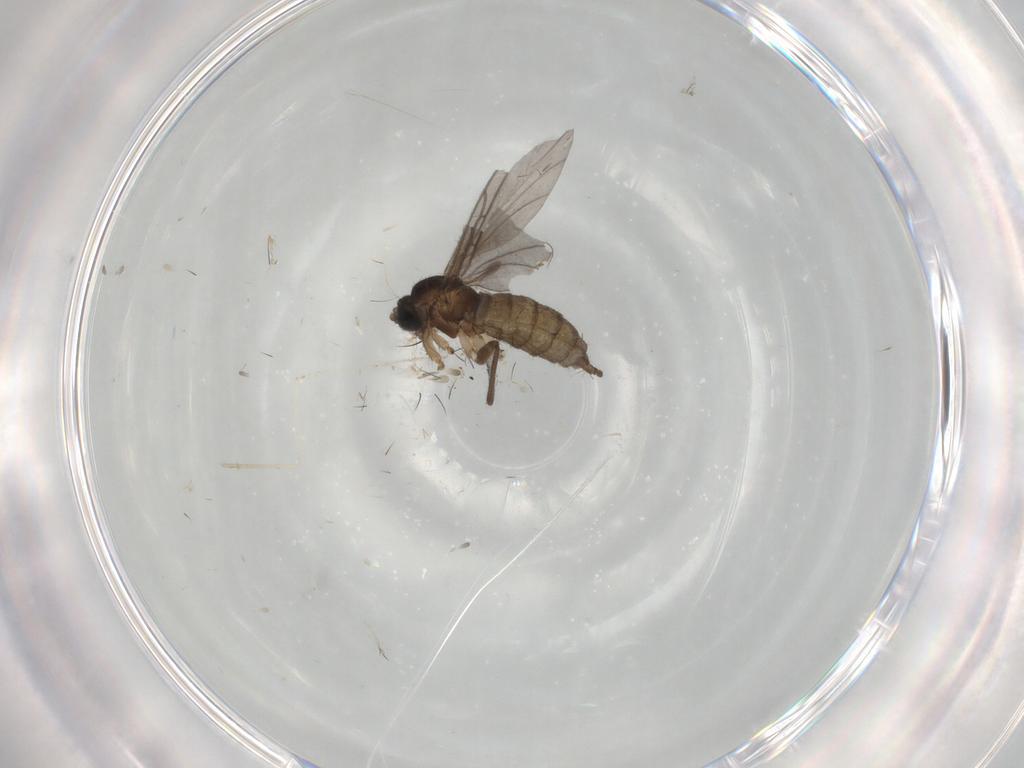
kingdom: Animalia
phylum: Arthropoda
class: Insecta
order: Diptera
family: Sciaridae
